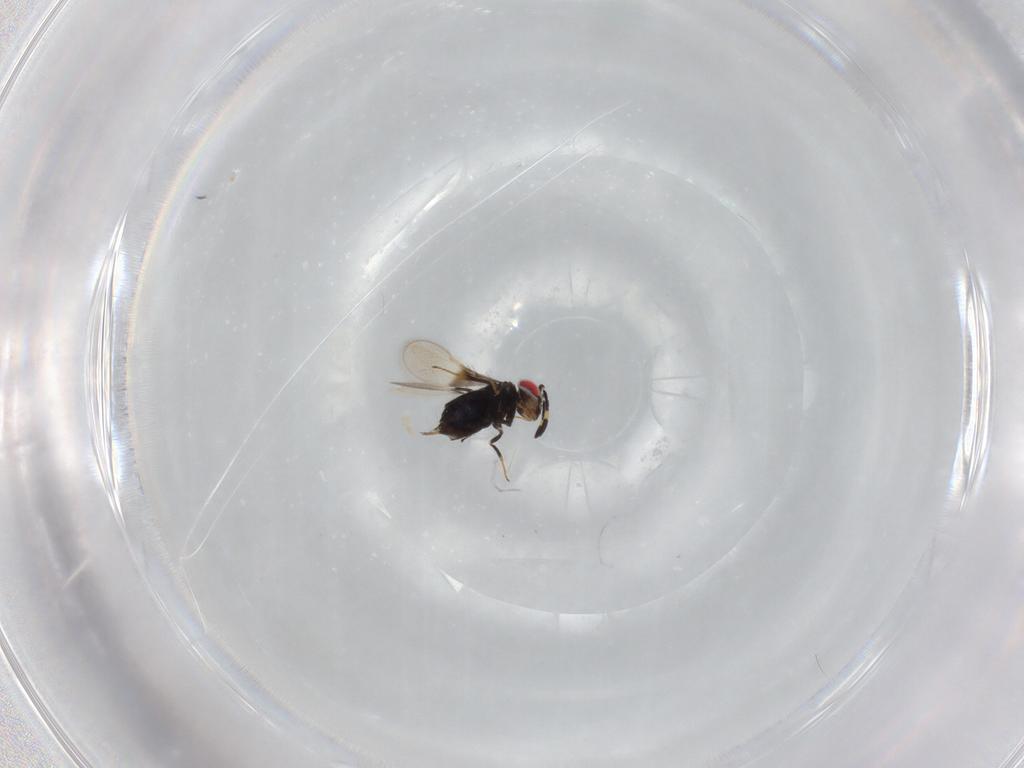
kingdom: Animalia
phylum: Arthropoda
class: Insecta
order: Hymenoptera
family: Azotidae
